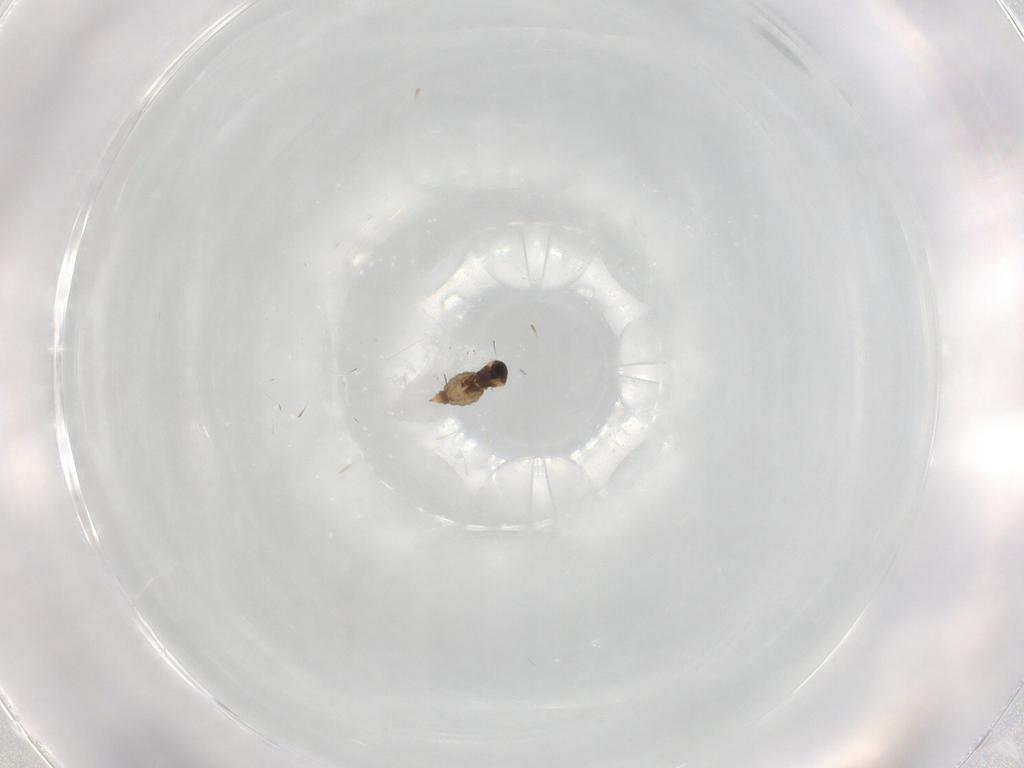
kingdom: Animalia
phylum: Arthropoda
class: Insecta
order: Diptera
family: Cecidomyiidae
